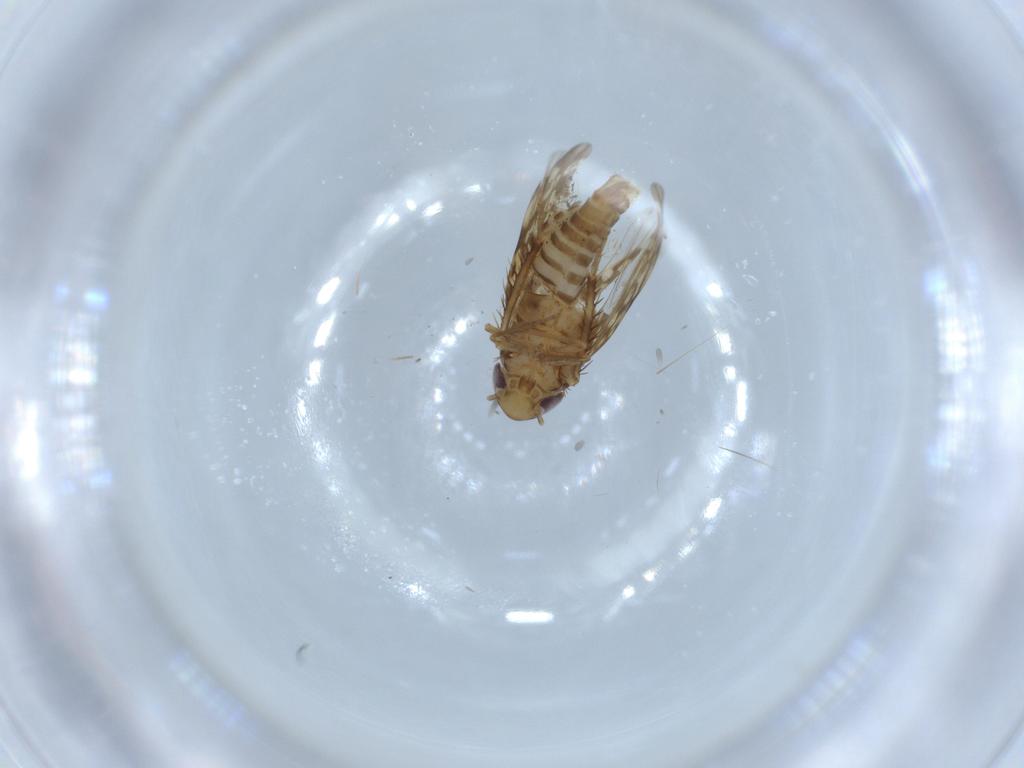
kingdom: Animalia
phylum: Arthropoda
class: Insecta
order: Hemiptera
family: Cicadellidae
